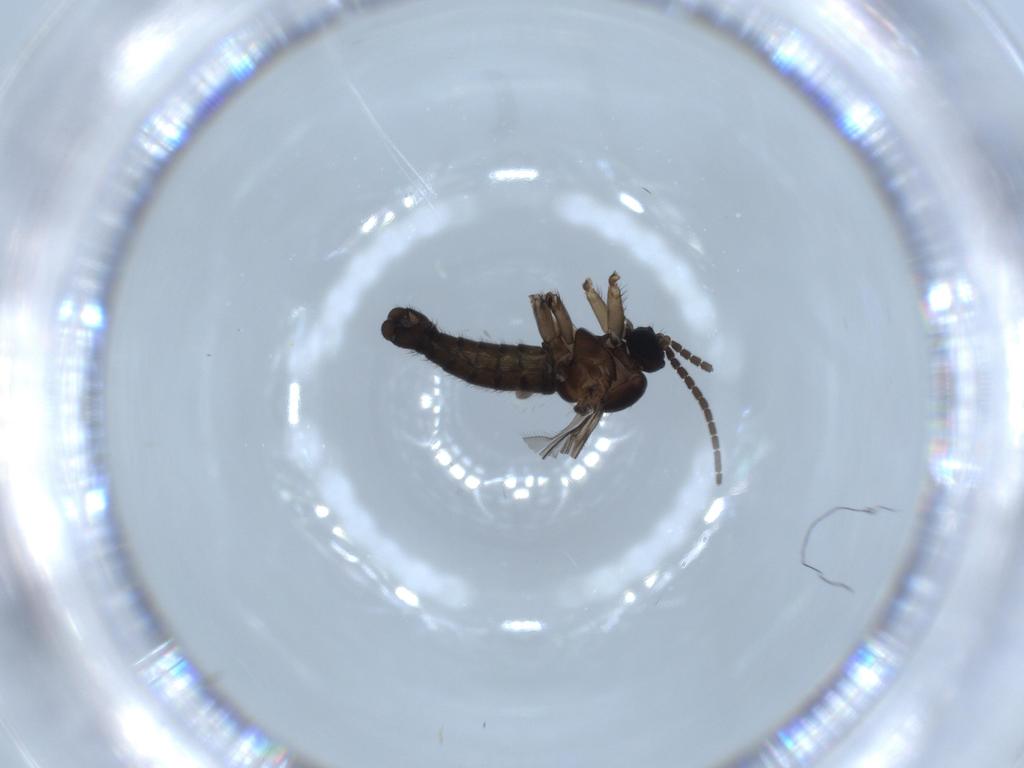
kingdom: Animalia
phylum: Arthropoda
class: Insecta
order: Diptera
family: Sciaridae
